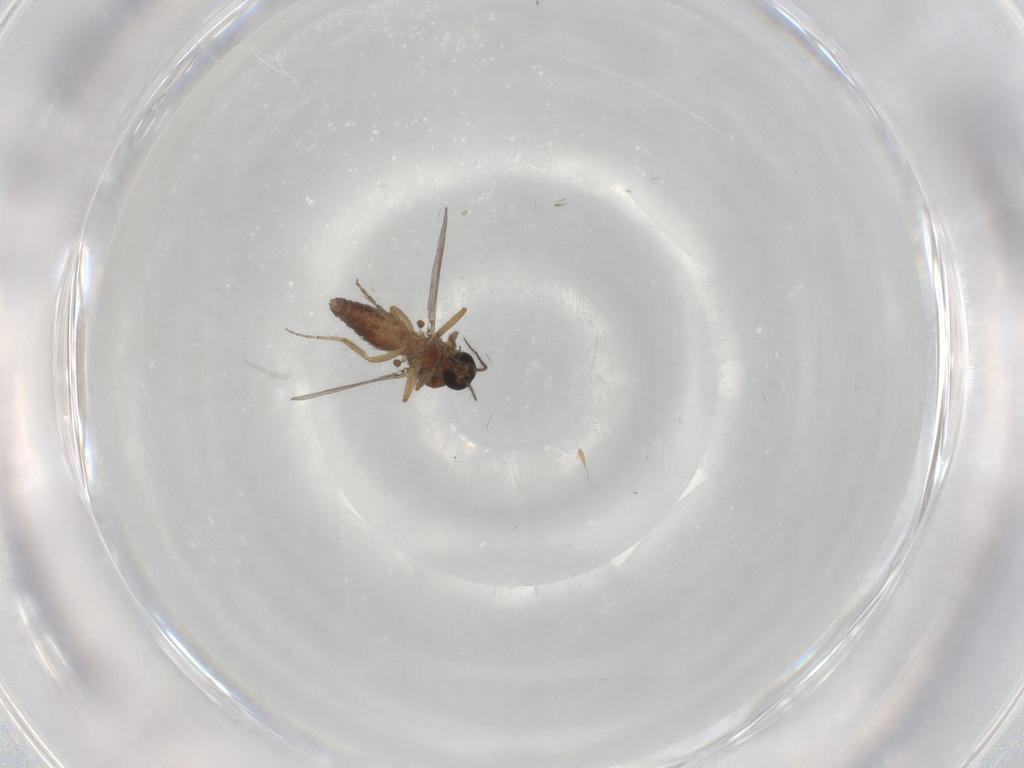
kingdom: Animalia
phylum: Arthropoda
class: Insecta
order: Diptera
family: Ceratopogonidae
